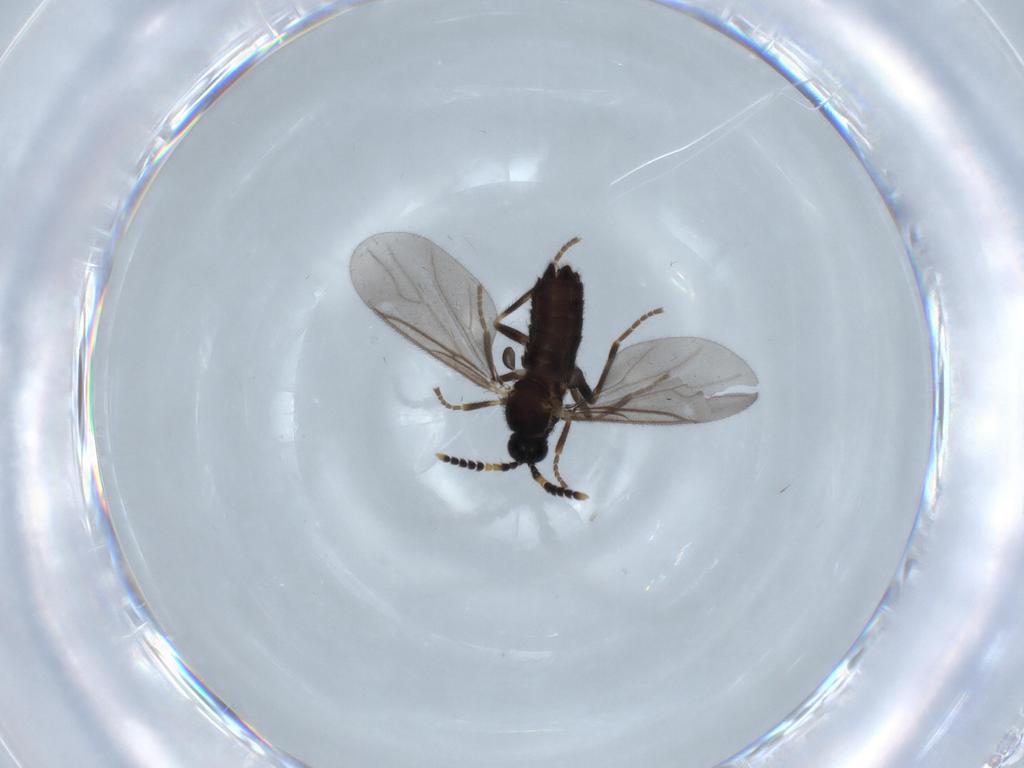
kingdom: Animalia
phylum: Arthropoda
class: Insecta
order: Diptera
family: Scatopsidae
